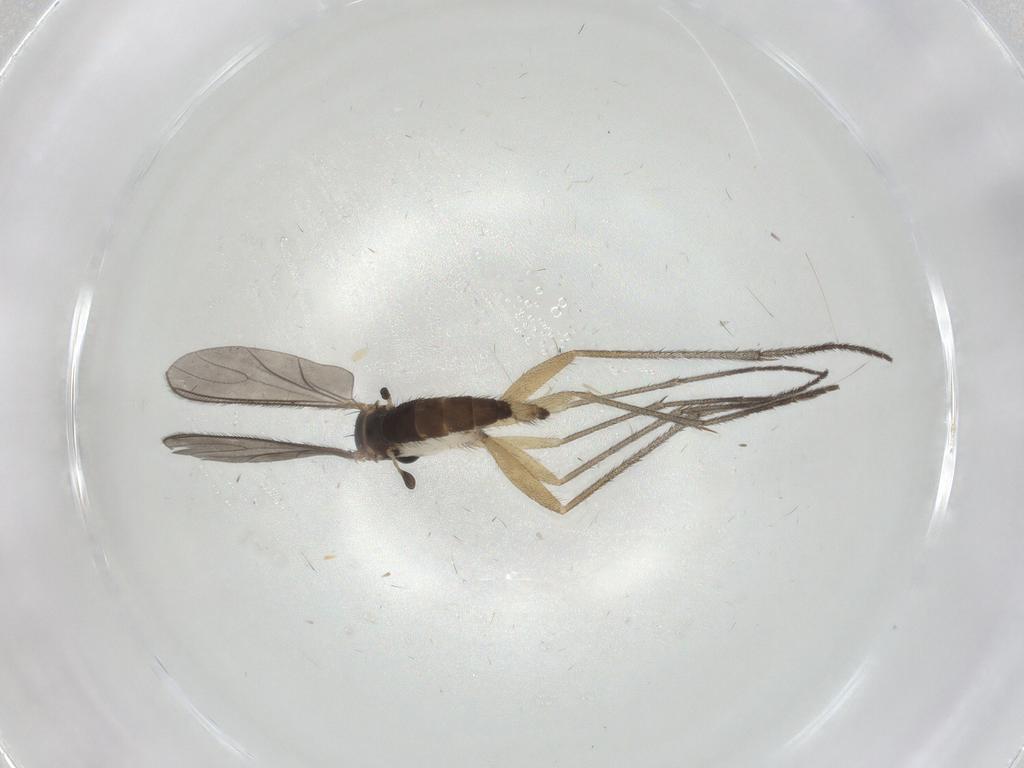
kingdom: Animalia
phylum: Arthropoda
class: Insecta
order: Diptera
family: Sciaridae
